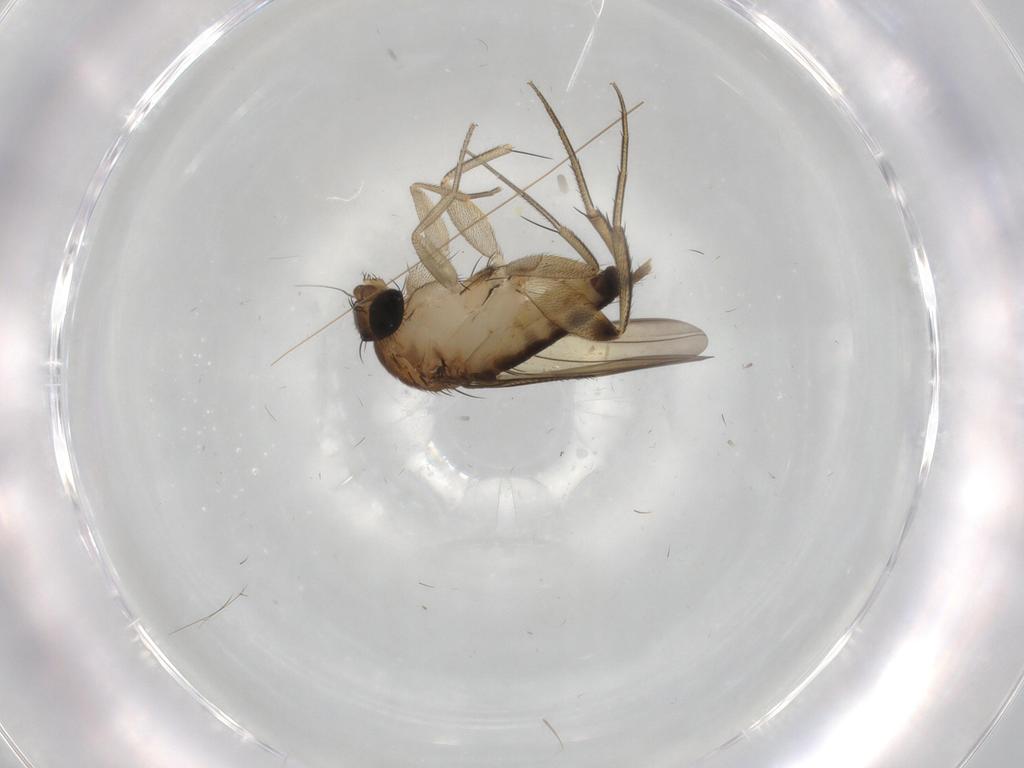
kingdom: Animalia
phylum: Arthropoda
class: Insecta
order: Diptera
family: Phoridae
